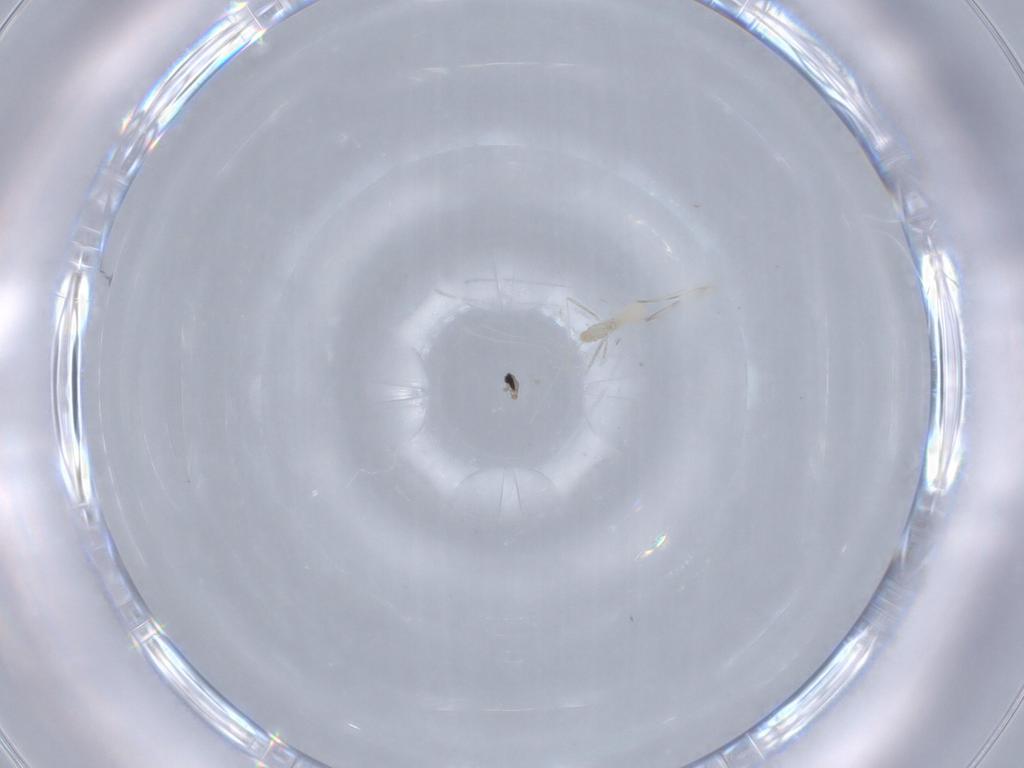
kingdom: Animalia
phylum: Arthropoda
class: Insecta
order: Diptera
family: Cecidomyiidae
